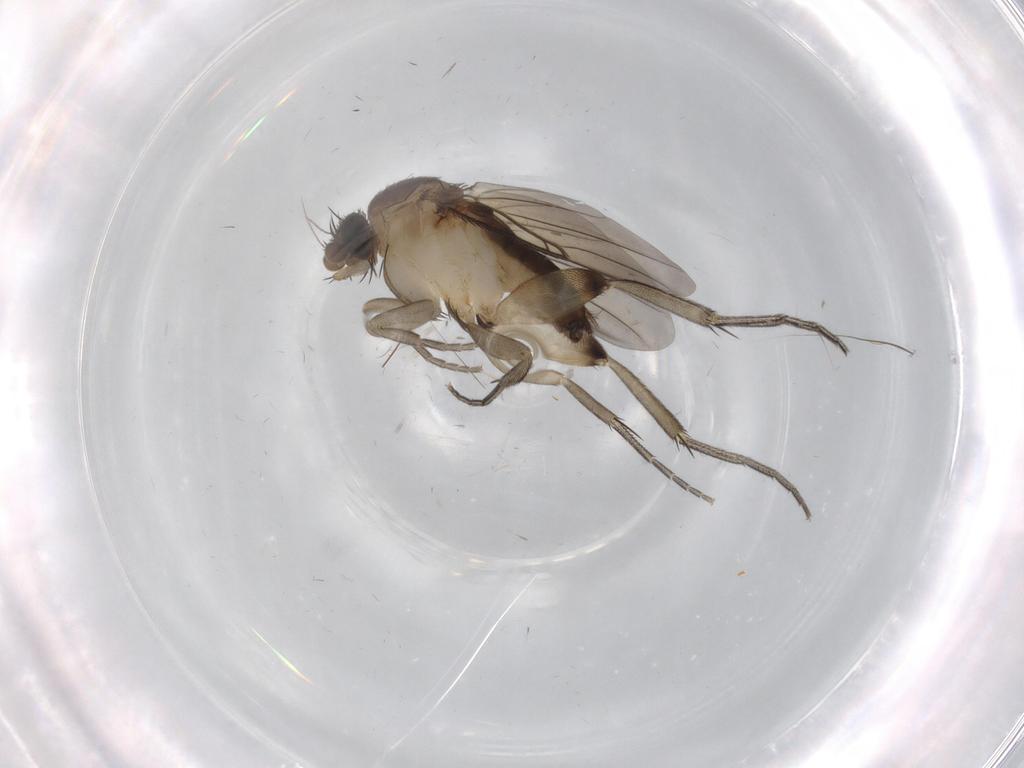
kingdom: Animalia
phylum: Arthropoda
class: Insecta
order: Diptera
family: Phoridae
